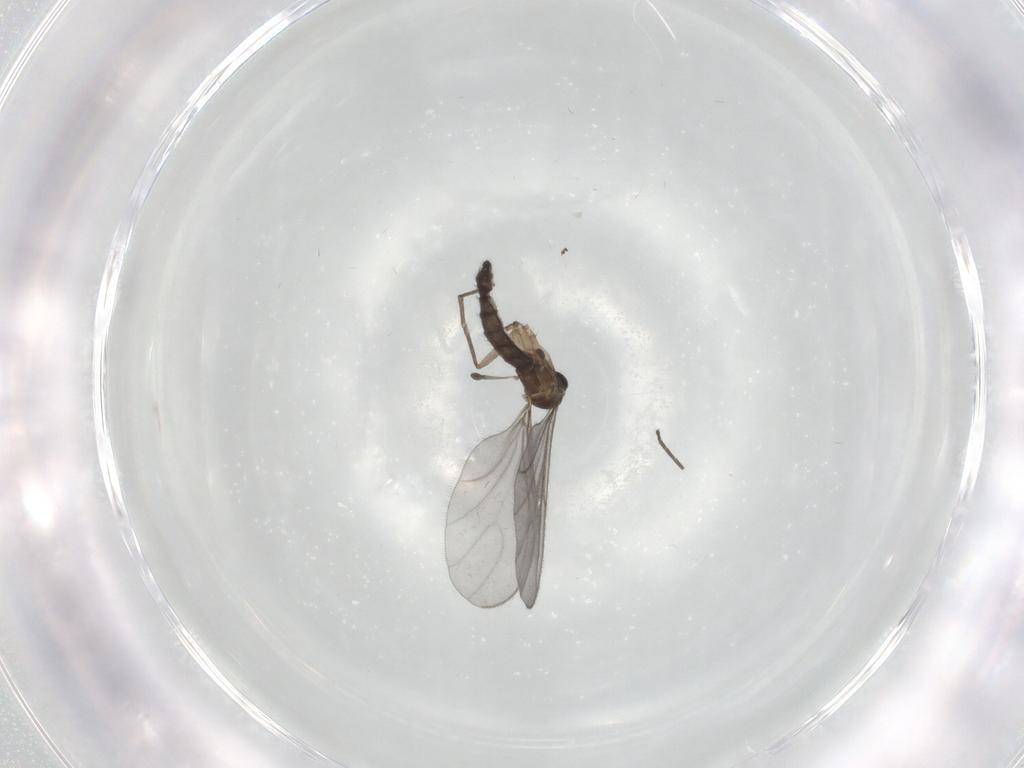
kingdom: Animalia
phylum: Arthropoda
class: Insecta
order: Diptera
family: Sciaridae
